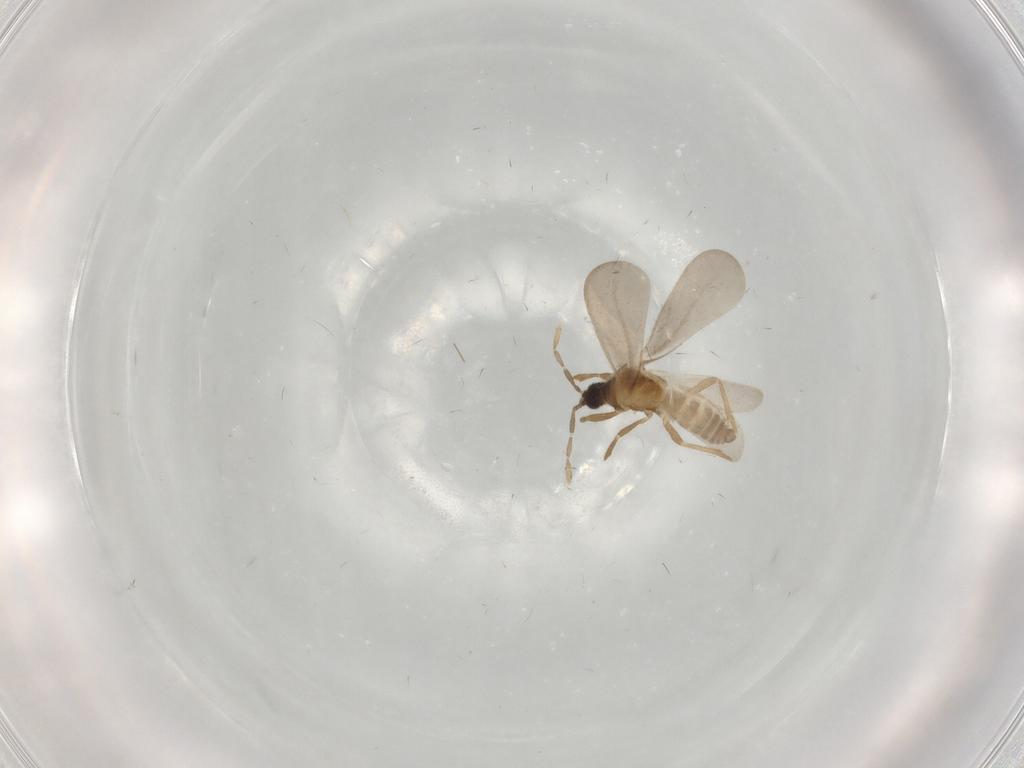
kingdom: Animalia
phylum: Arthropoda
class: Insecta
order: Hemiptera
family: Enicocephalidae
